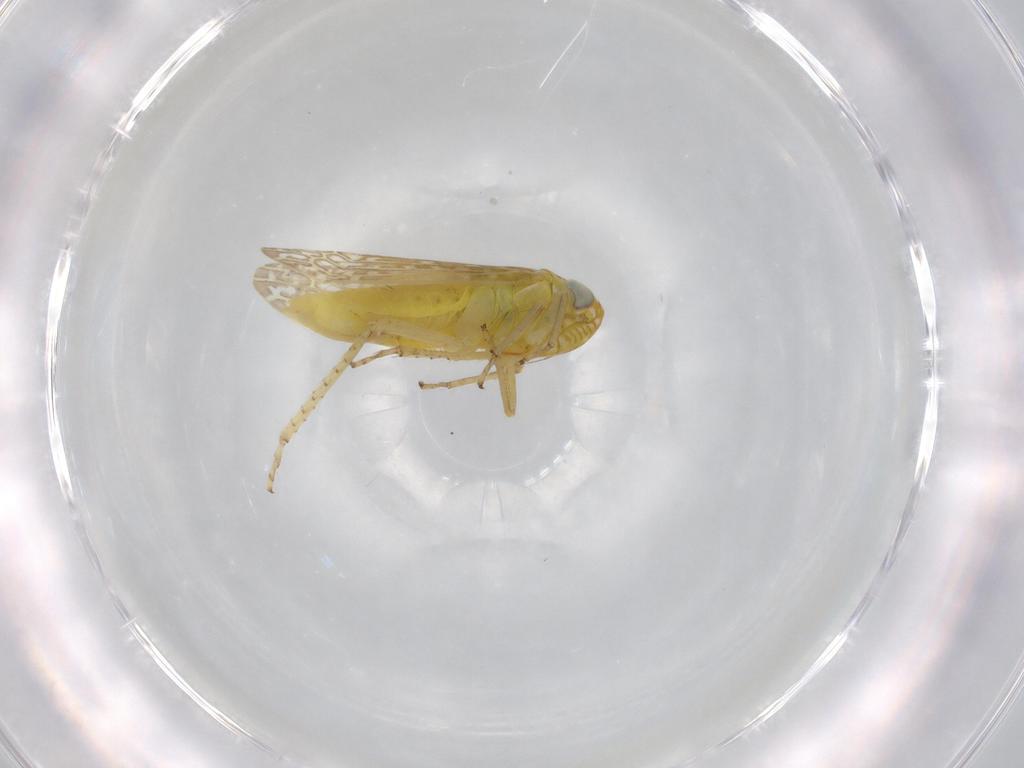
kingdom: Animalia
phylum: Arthropoda
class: Insecta
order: Hemiptera
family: Cicadellidae
